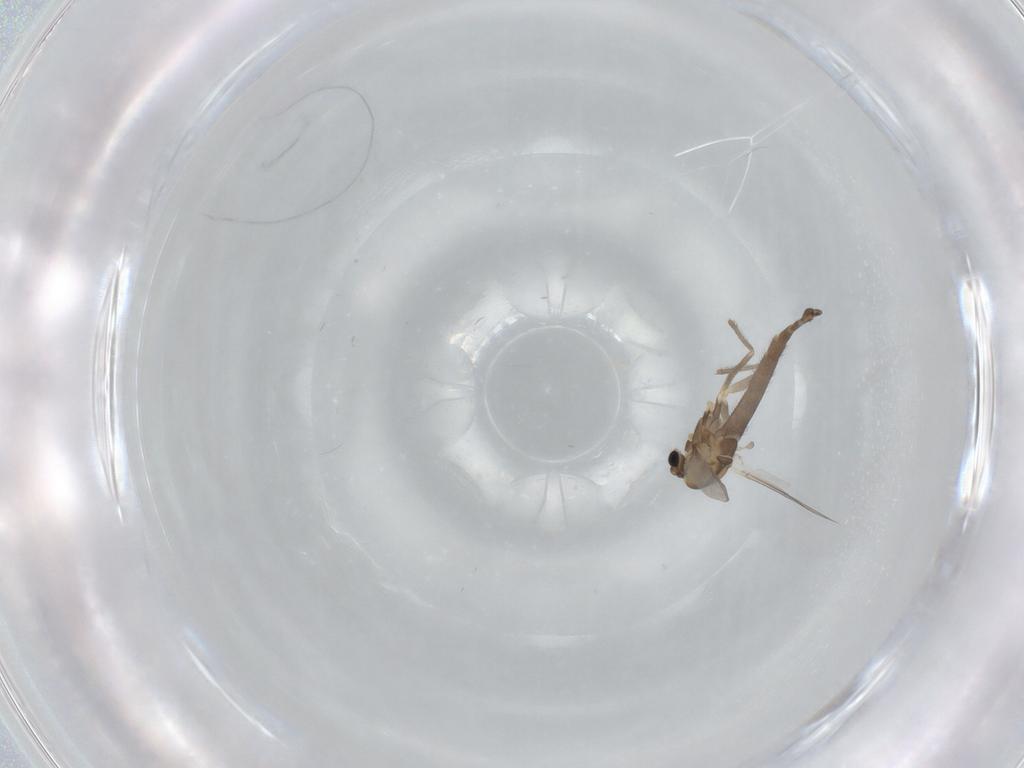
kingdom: Animalia
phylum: Arthropoda
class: Insecta
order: Diptera
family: Chironomidae
